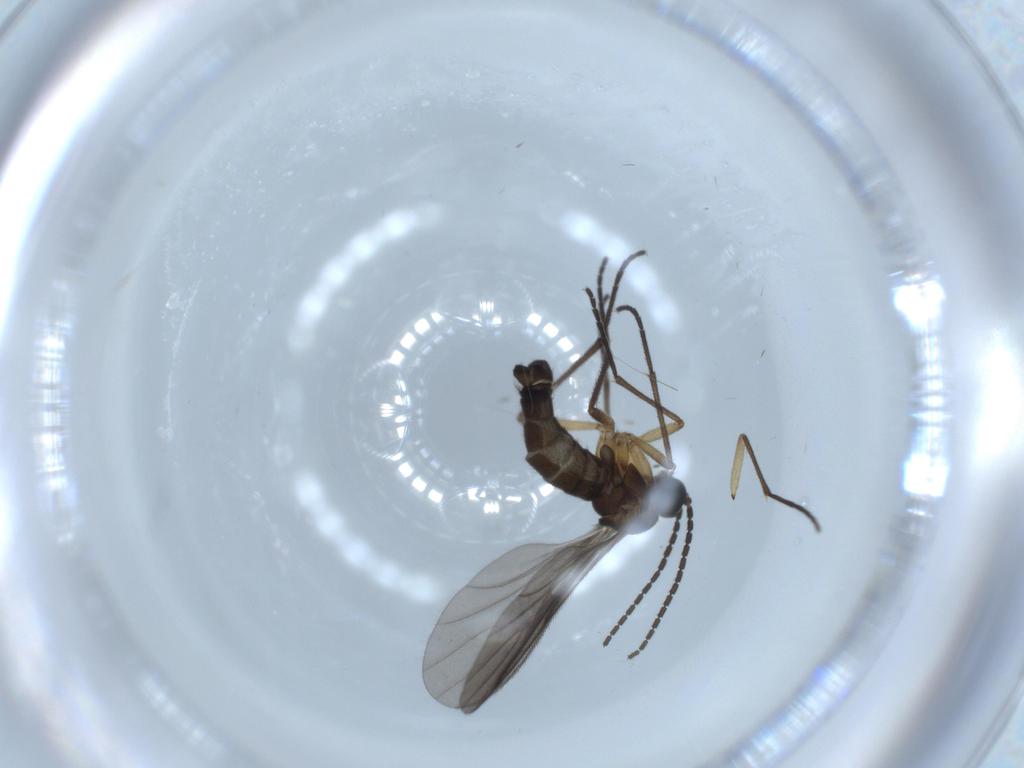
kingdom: Animalia
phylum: Arthropoda
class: Insecta
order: Diptera
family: Sciaridae
